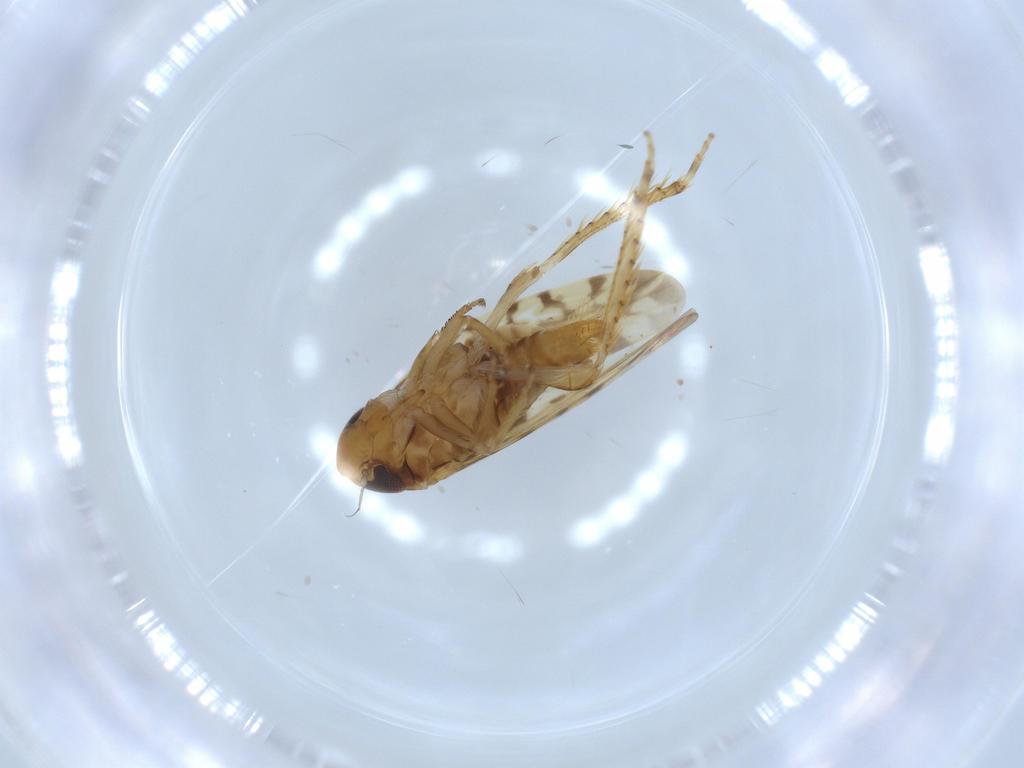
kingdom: Animalia
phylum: Arthropoda
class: Insecta
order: Hemiptera
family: Cicadellidae
